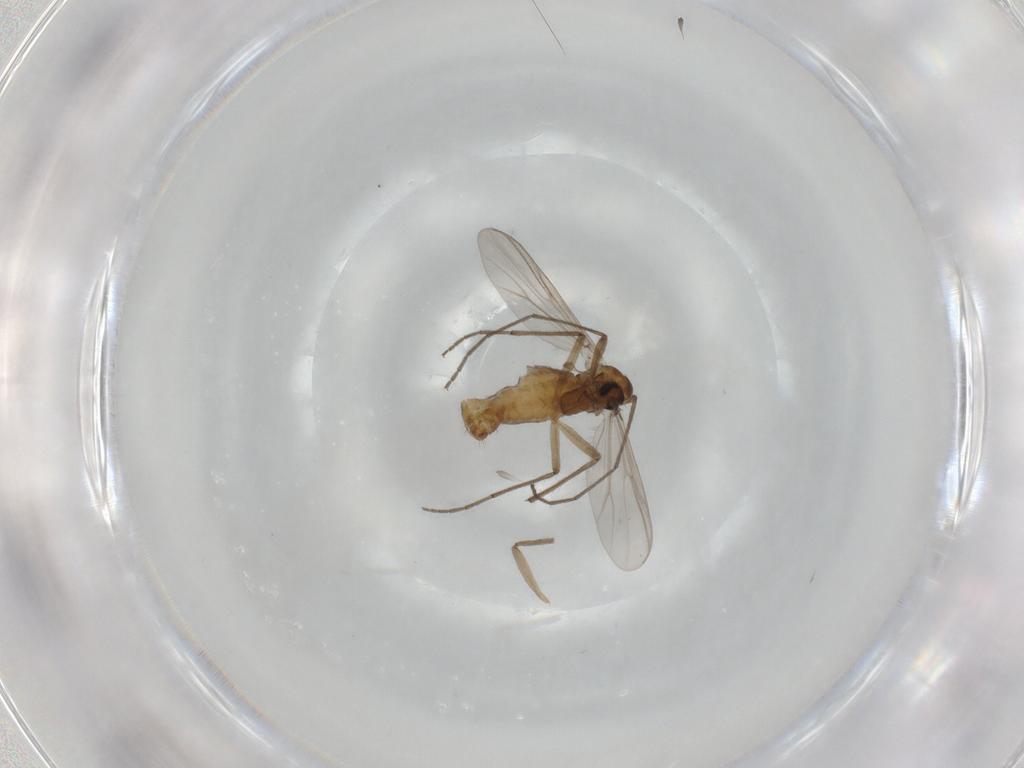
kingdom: Animalia
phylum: Arthropoda
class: Insecta
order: Diptera
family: Chironomidae
